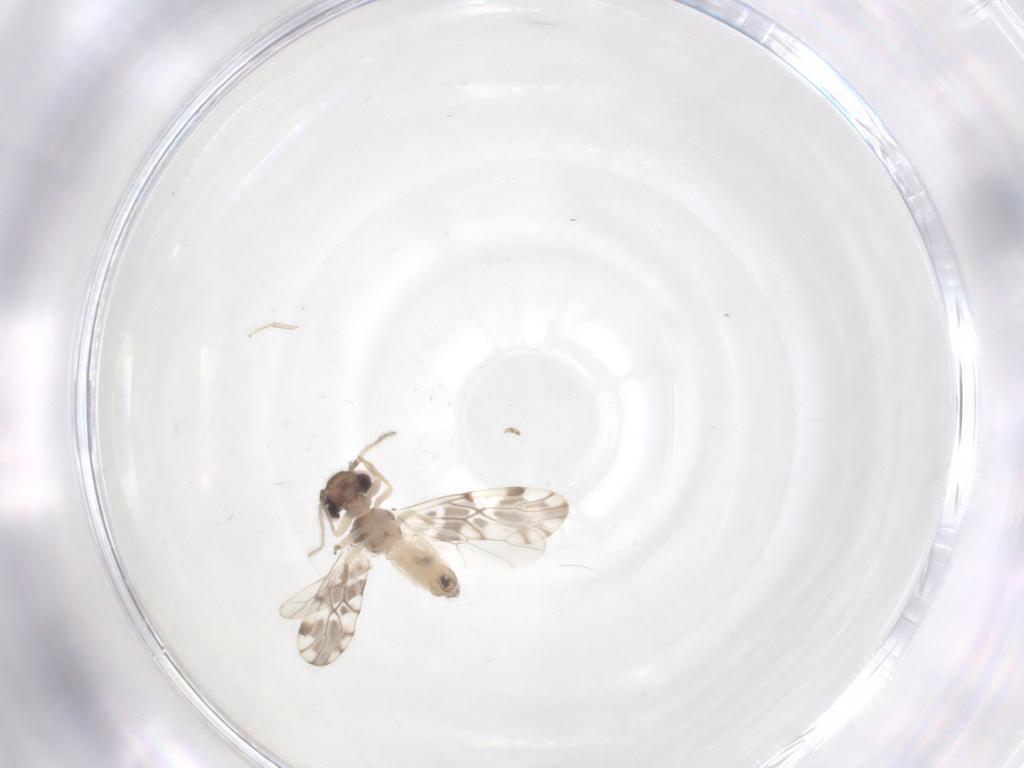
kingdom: Animalia
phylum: Arthropoda
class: Insecta
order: Psocodea
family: Ectopsocidae
